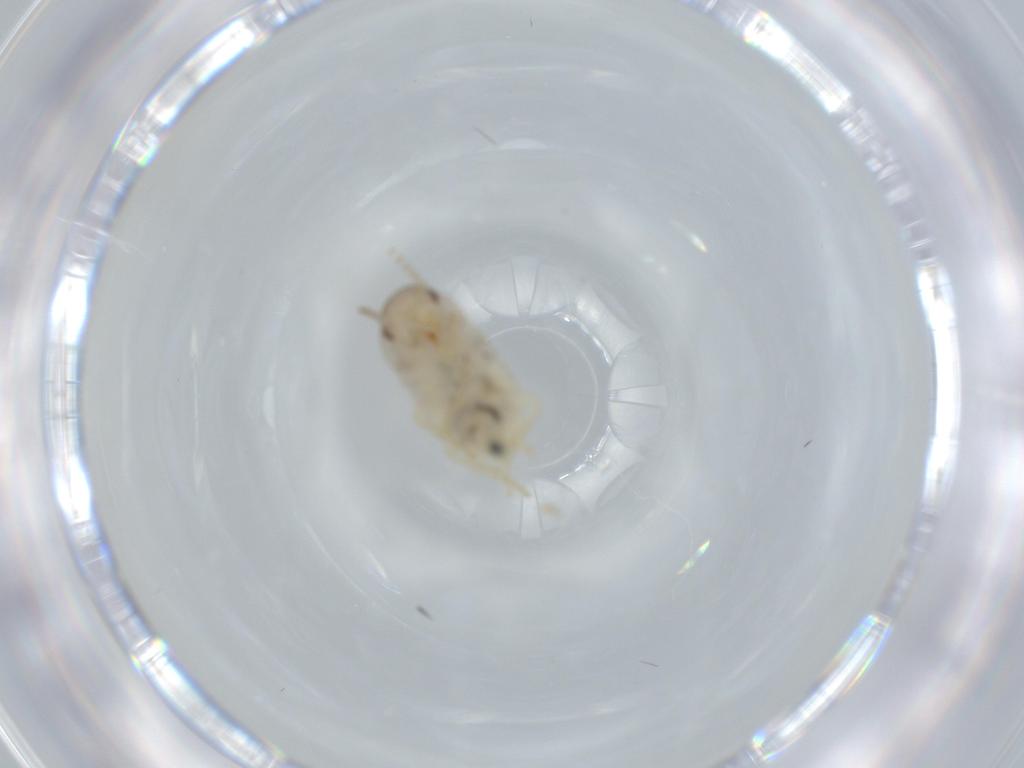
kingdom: Animalia
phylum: Arthropoda
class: Insecta
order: Blattodea
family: Ectobiidae
